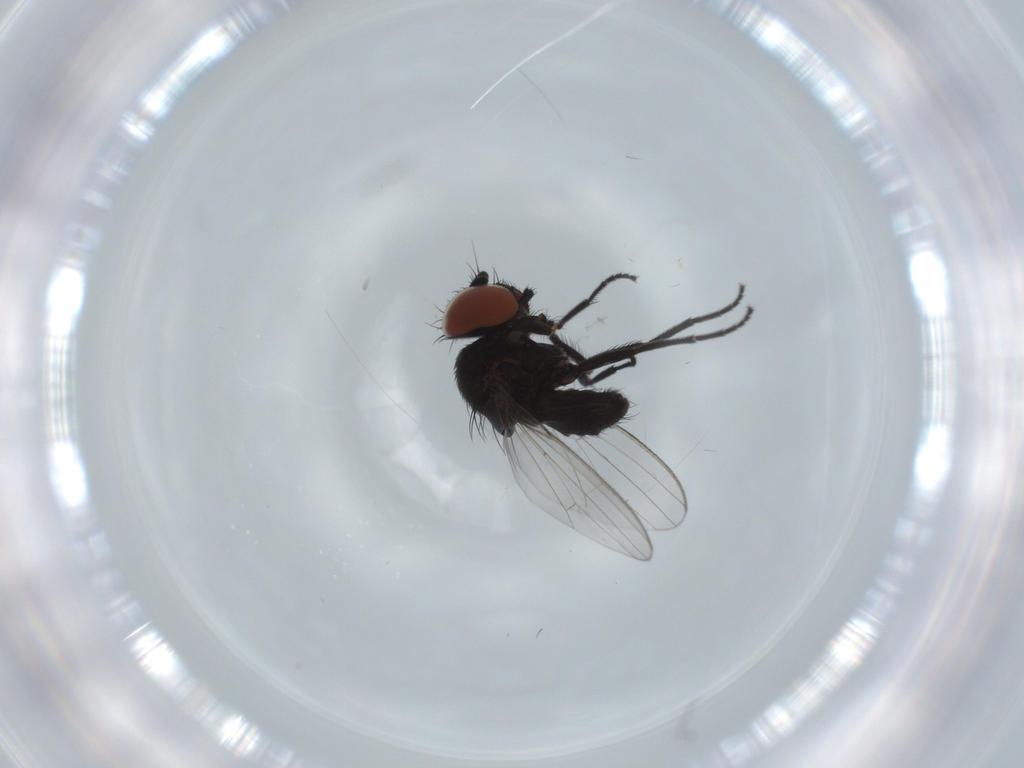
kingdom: Animalia
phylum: Arthropoda
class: Insecta
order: Diptera
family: Milichiidae
